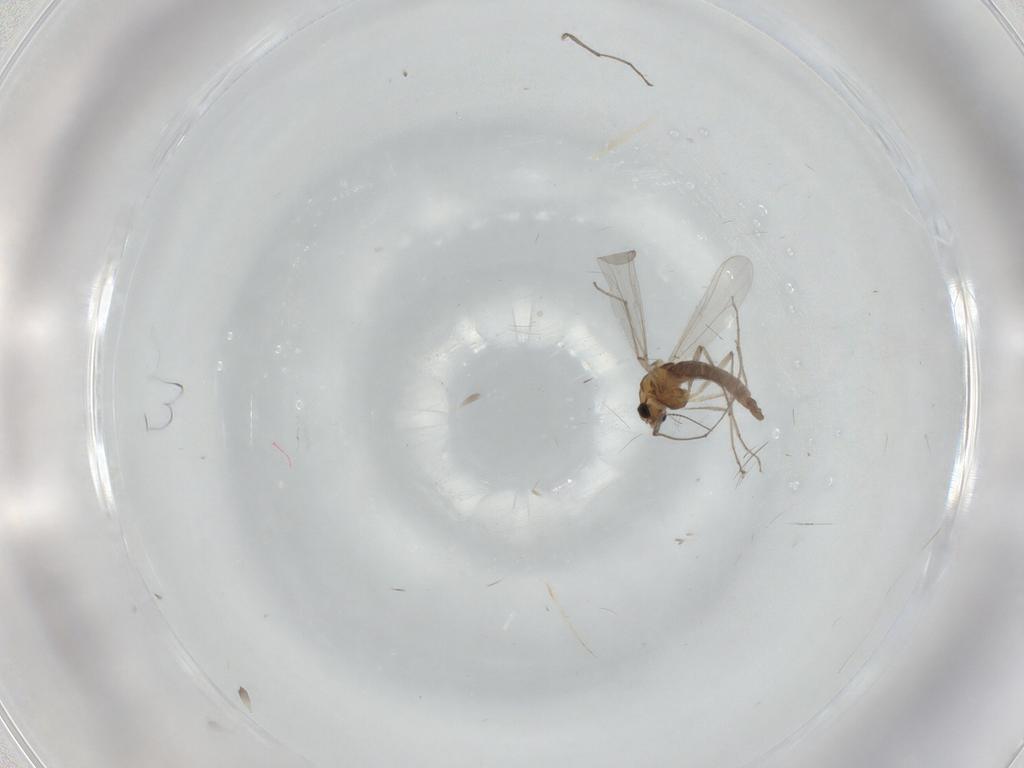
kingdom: Animalia
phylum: Arthropoda
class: Insecta
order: Diptera
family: Chironomidae
